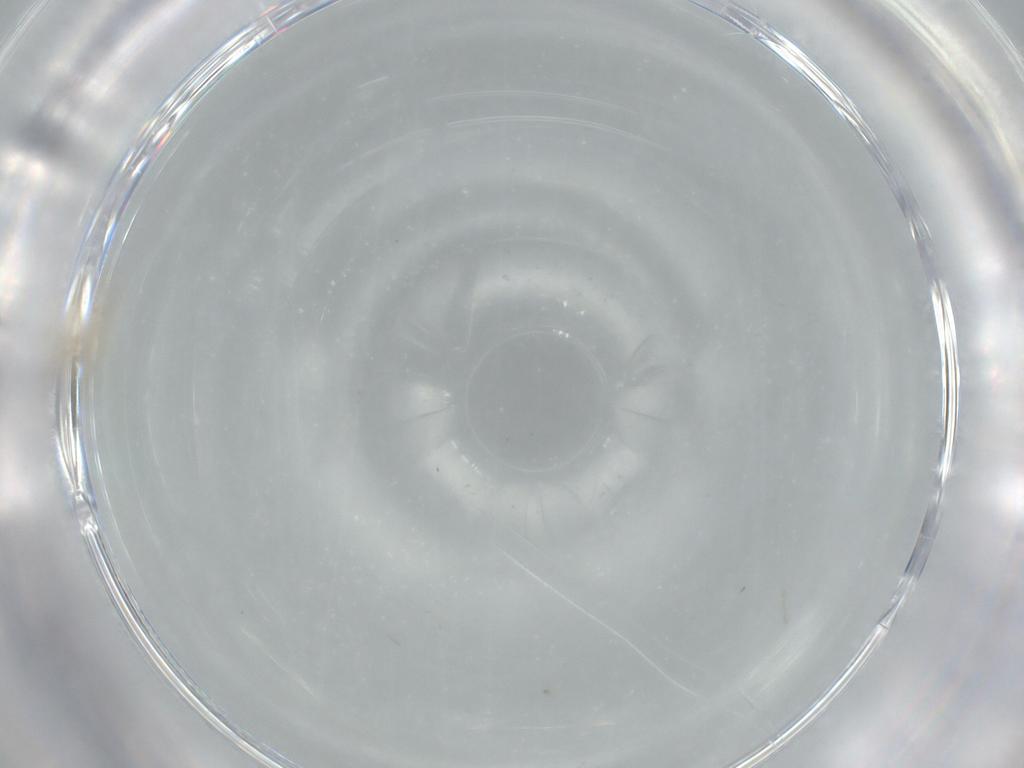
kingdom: Animalia
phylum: Arthropoda
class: Insecta
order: Diptera
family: Cecidomyiidae
